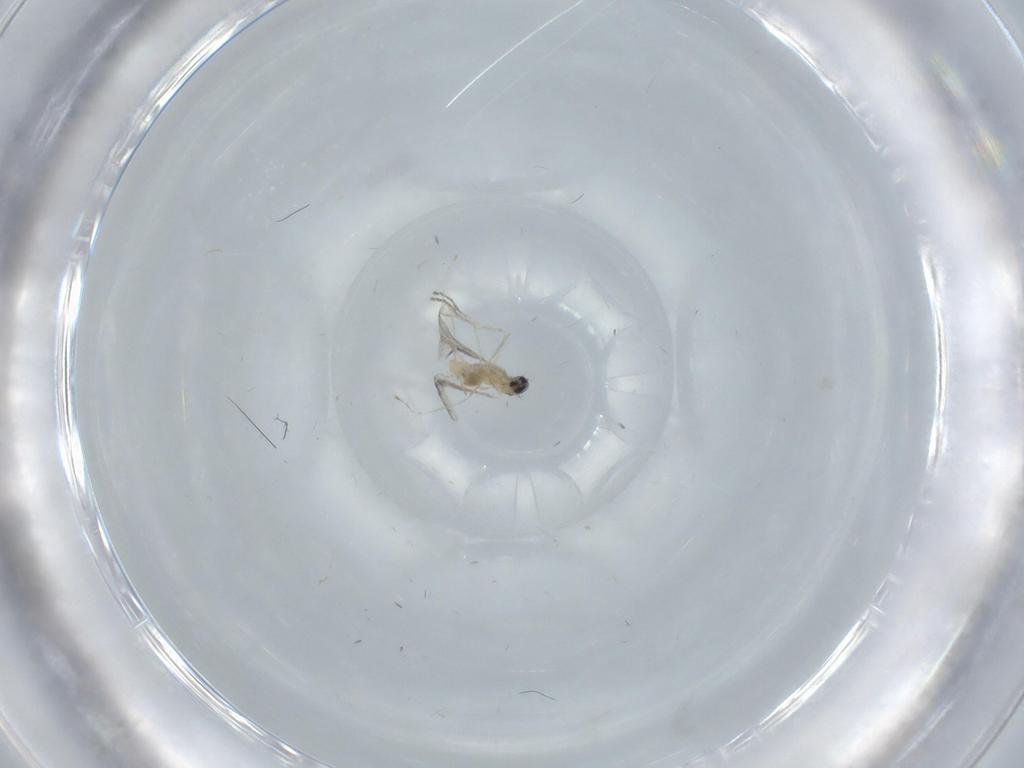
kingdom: Animalia
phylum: Arthropoda
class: Insecta
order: Diptera
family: Cecidomyiidae
